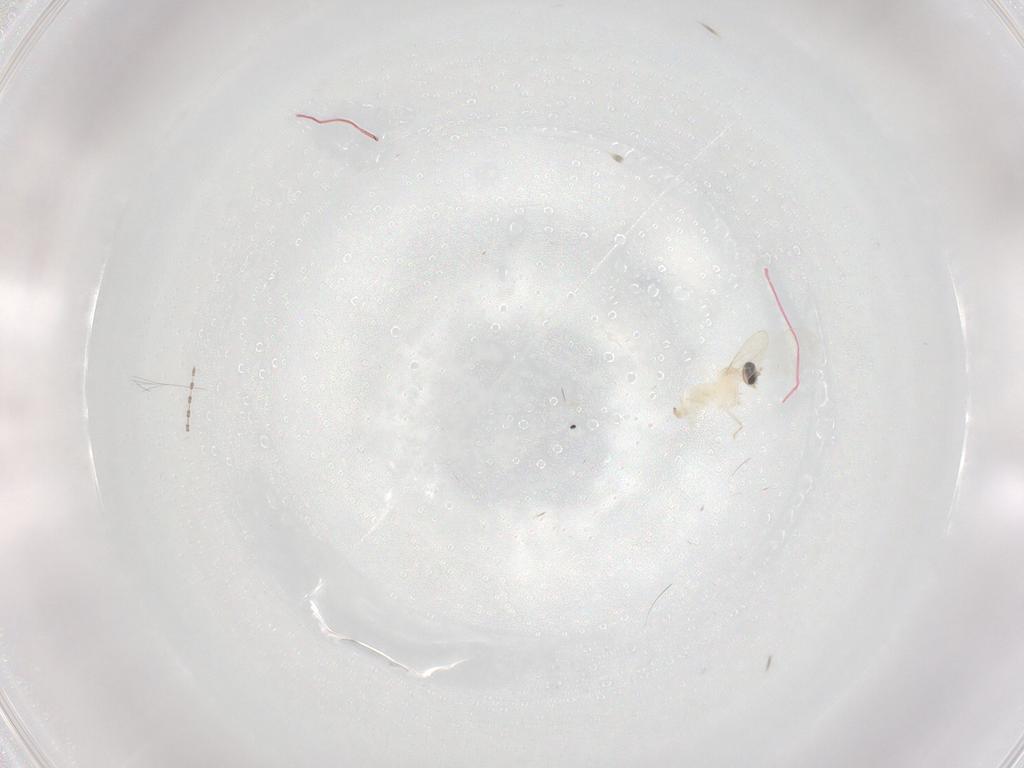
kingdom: Animalia
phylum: Arthropoda
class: Insecta
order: Diptera
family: Cecidomyiidae
